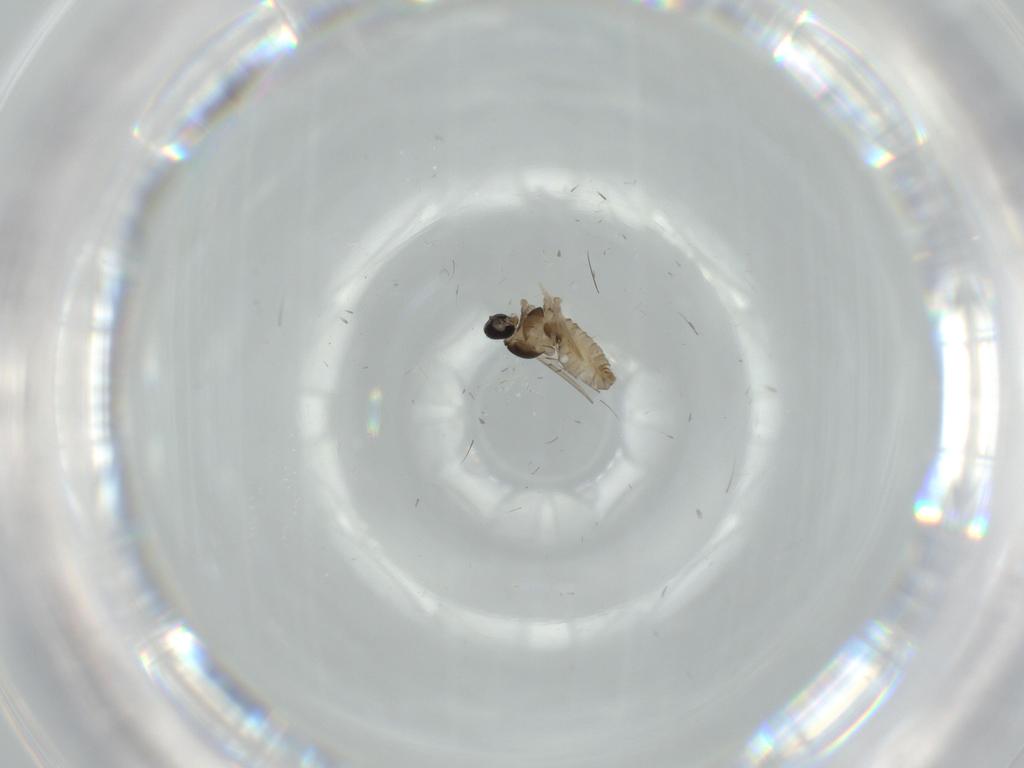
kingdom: Animalia
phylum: Arthropoda
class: Insecta
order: Diptera
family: Cecidomyiidae
